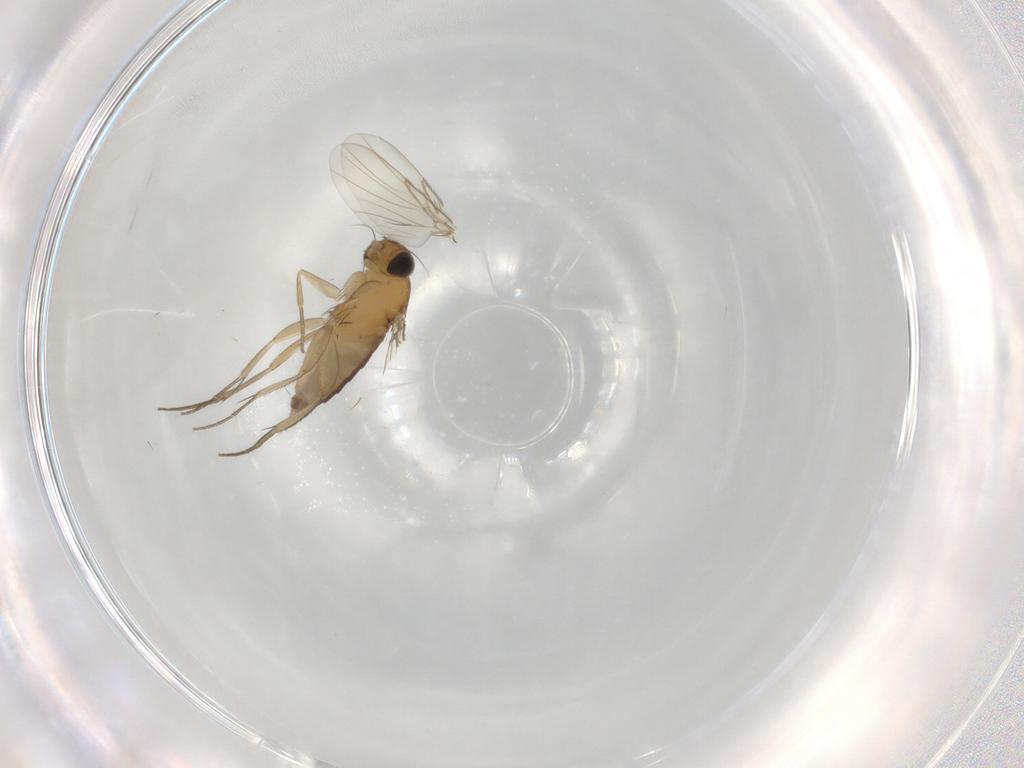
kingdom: Animalia
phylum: Arthropoda
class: Insecta
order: Diptera
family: Phoridae
